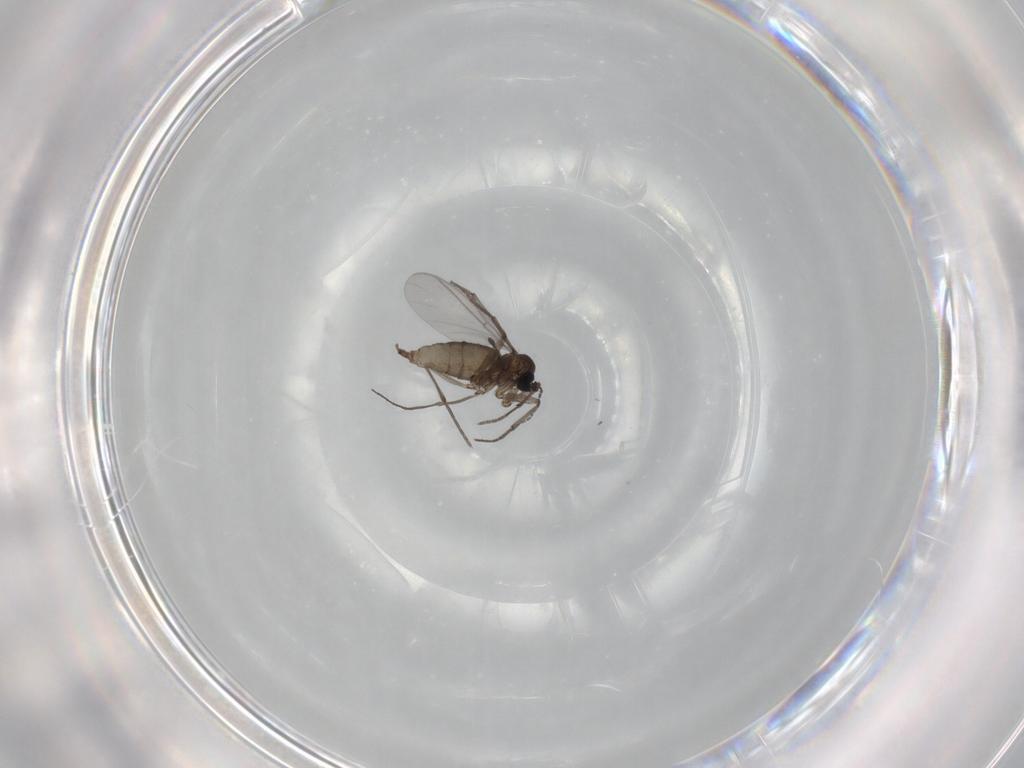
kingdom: Animalia
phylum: Arthropoda
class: Insecta
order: Diptera
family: Sciaridae
